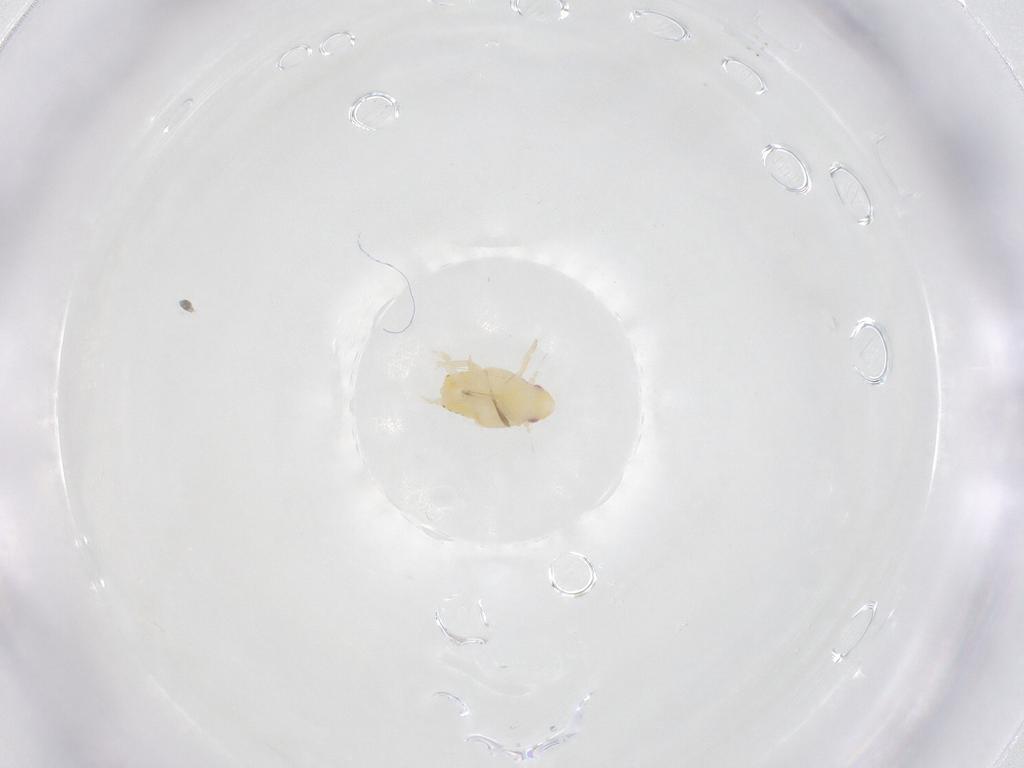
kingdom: Animalia
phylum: Arthropoda
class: Insecta
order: Hemiptera
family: Flatidae
